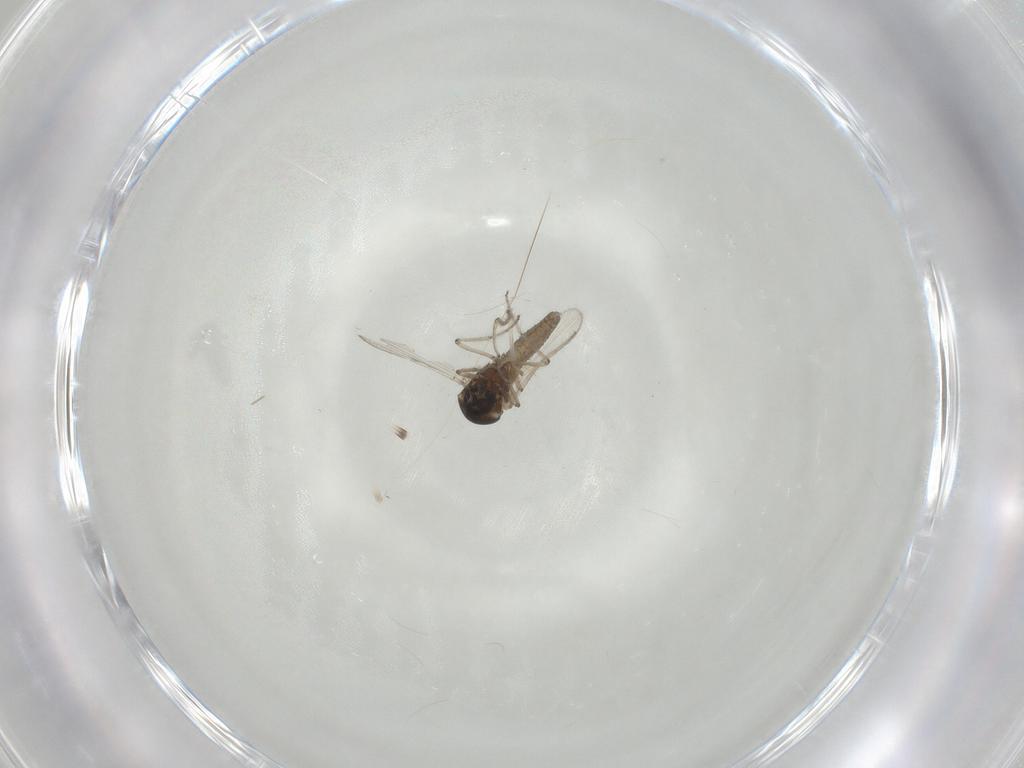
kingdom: Animalia
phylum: Arthropoda
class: Insecta
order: Diptera
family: Ceratopogonidae
